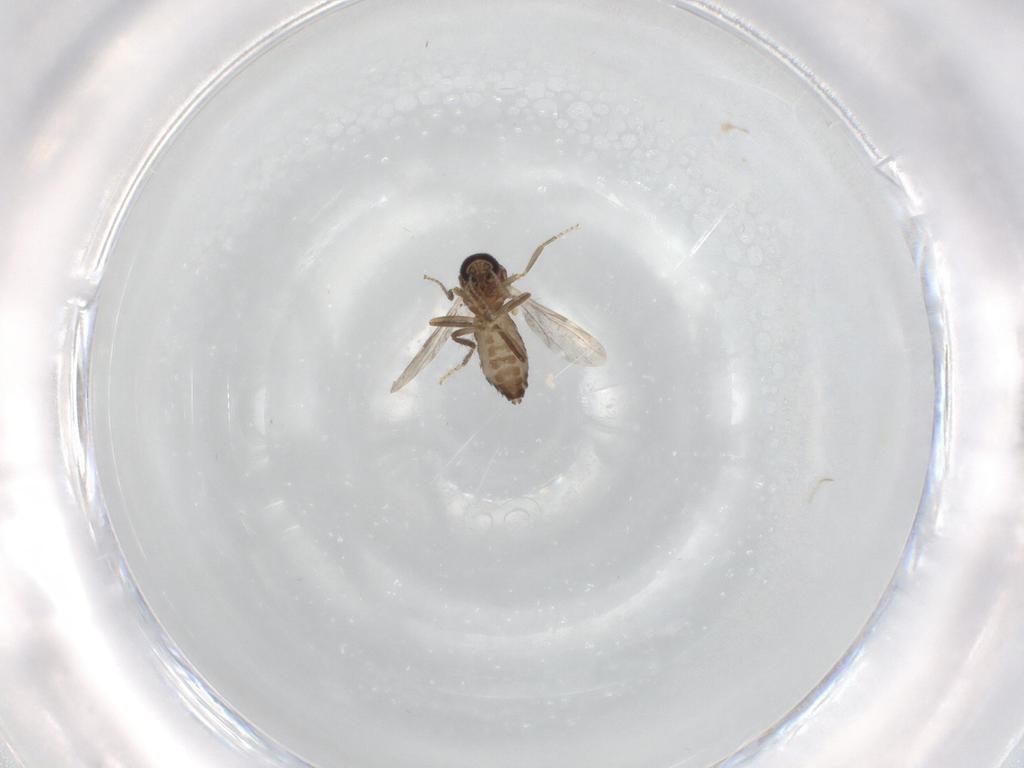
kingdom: Animalia
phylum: Arthropoda
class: Insecta
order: Diptera
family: Ceratopogonidae
